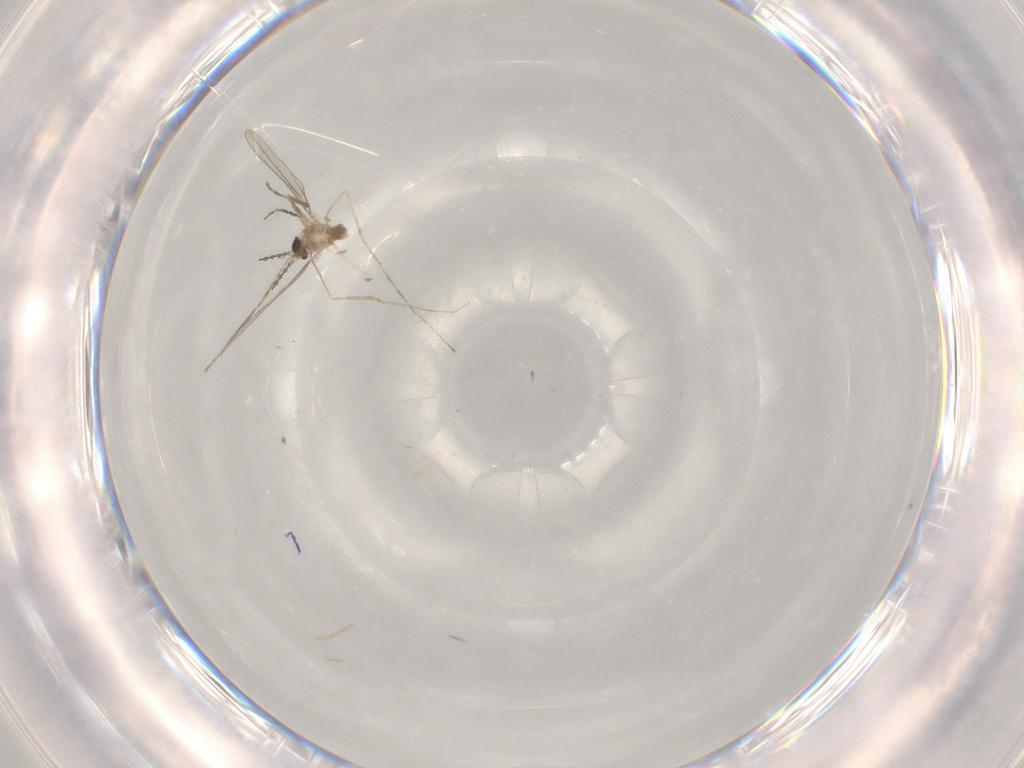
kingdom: Animalia
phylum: Arthropoda
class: Insecta
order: Diptera
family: Cecidomyiidae
